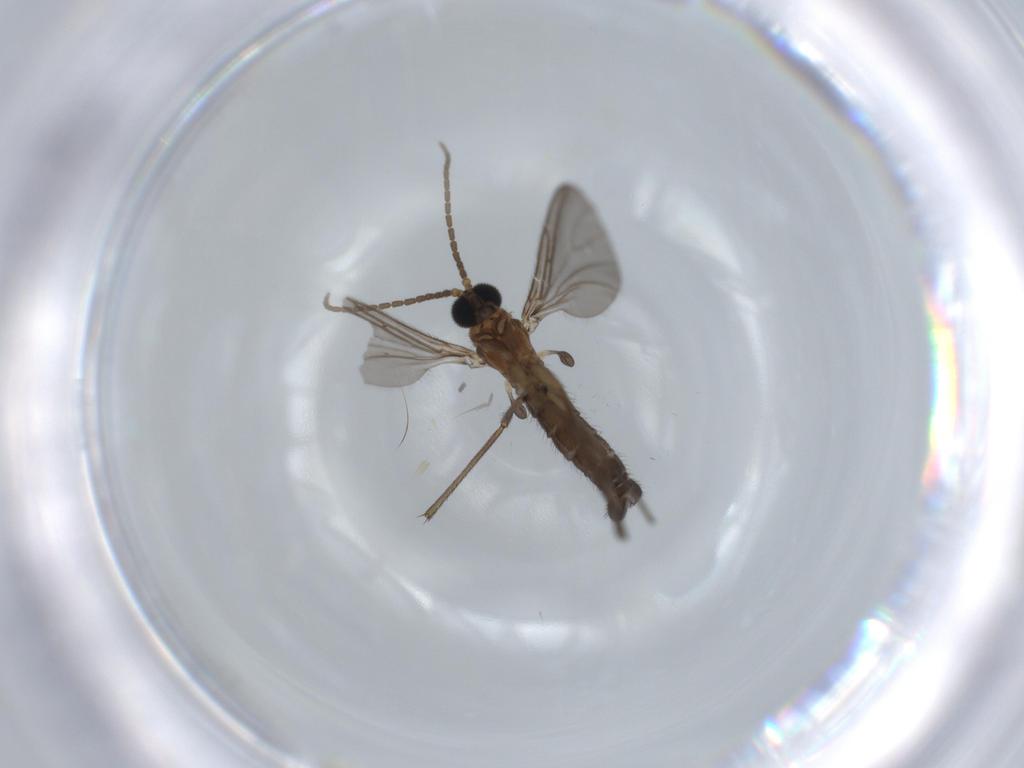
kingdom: Animalia
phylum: Arthropoda
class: Insecta
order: Diptera
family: Sciaridae
